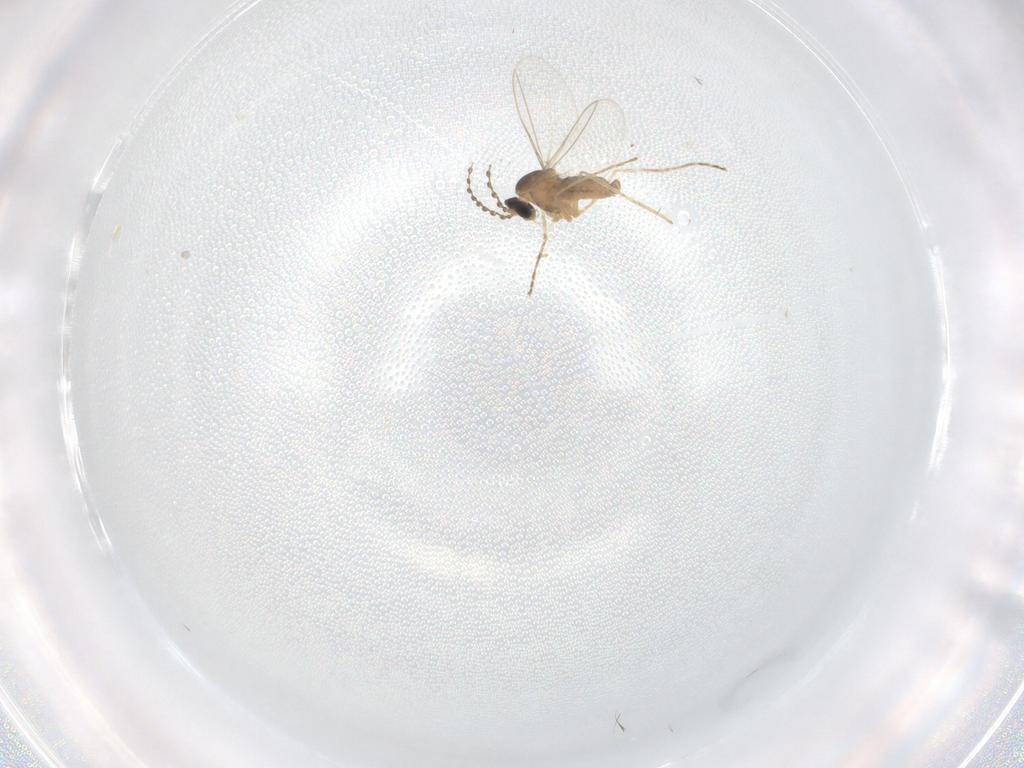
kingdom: Animalia
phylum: Arthropoda
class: Insecta
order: Diptera
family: Cecidomyiidae
